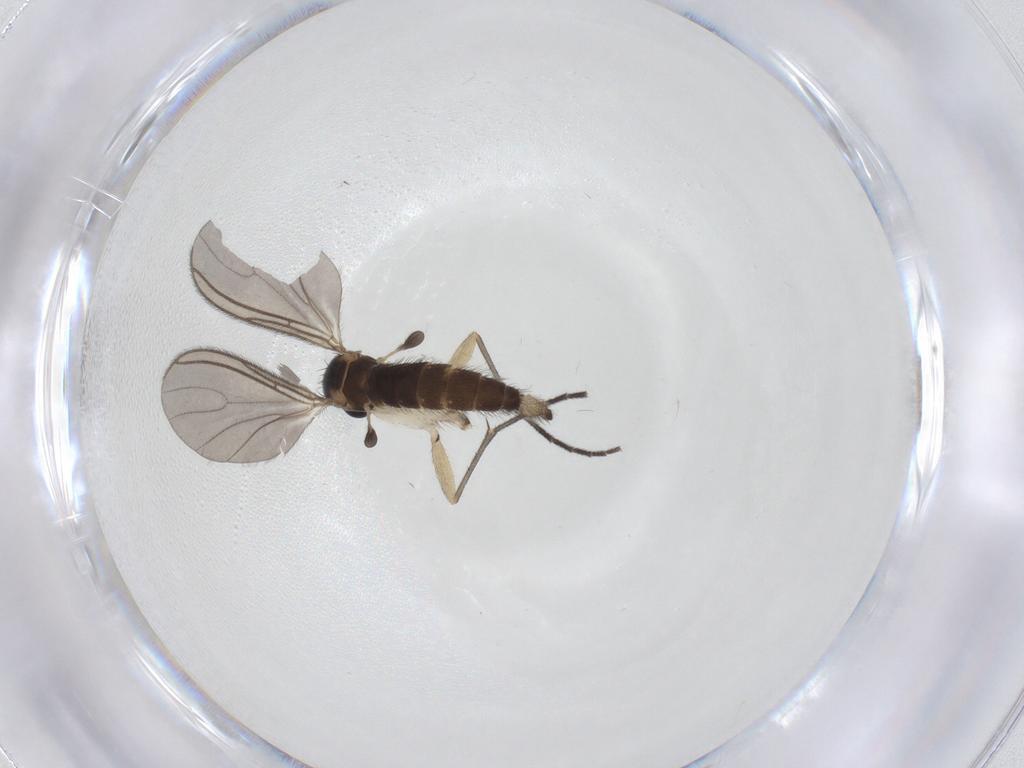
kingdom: Animalia
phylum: Arthropoda
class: Insecta
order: Diptera
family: Sciaridae
